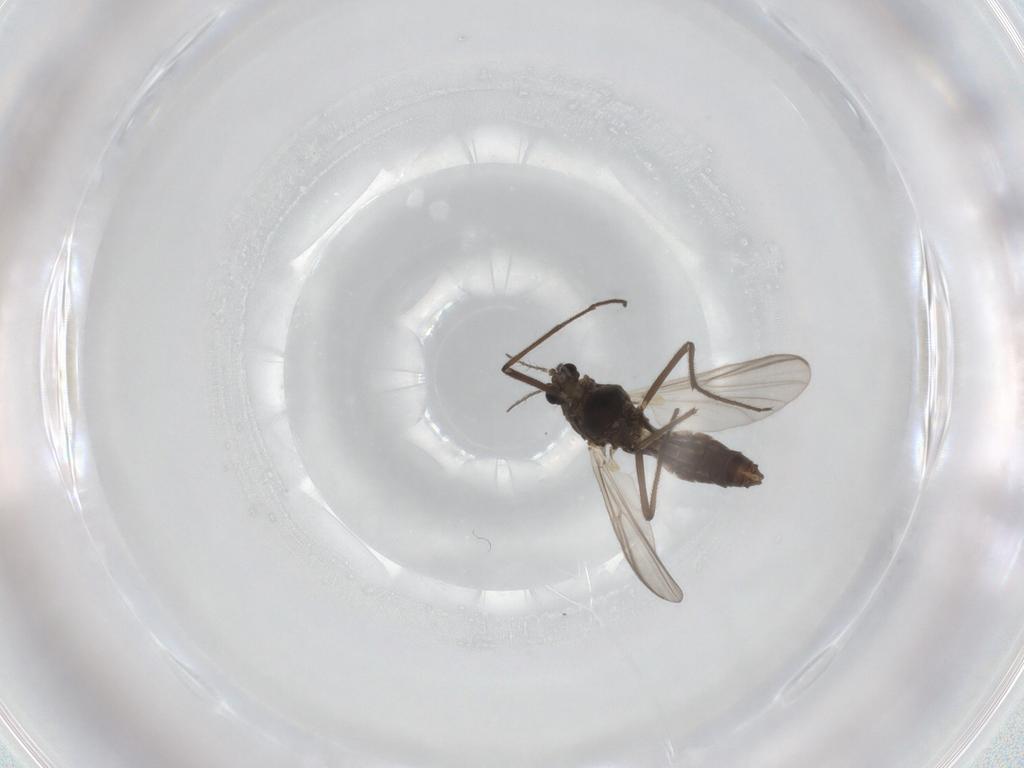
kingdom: Animalia
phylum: Arthropoda
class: Insecta
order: Diptera
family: Chironomidae
